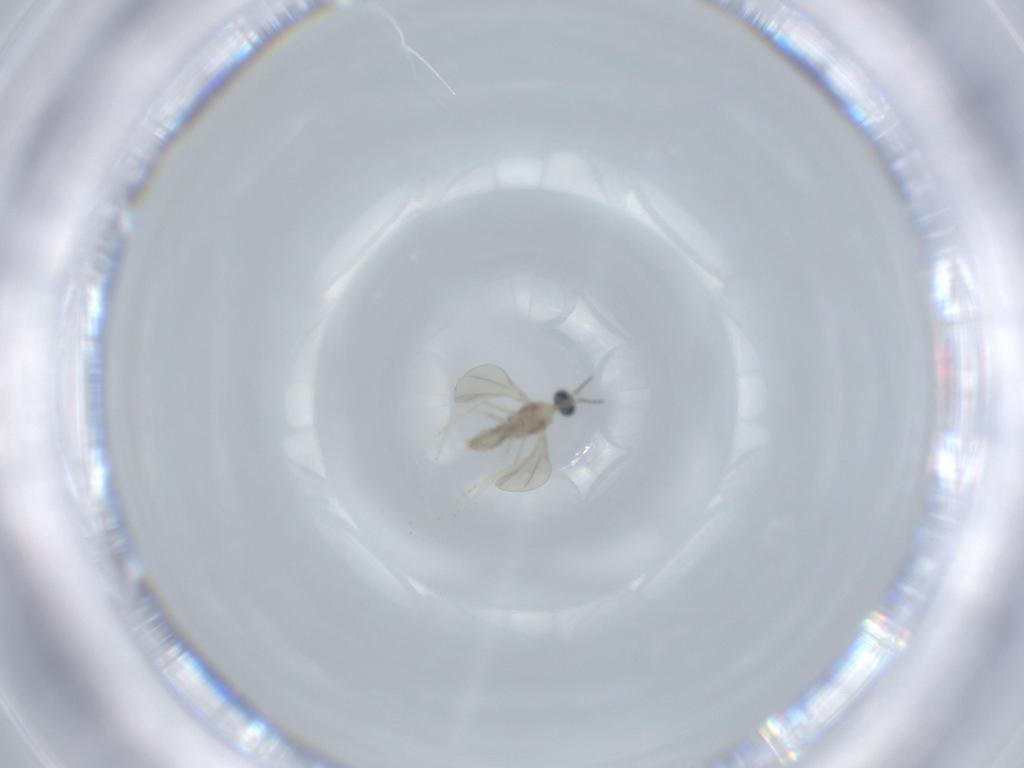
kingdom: Animalia
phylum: Arthropoda
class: Insecta
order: Diptera
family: Cecidomyiidae
